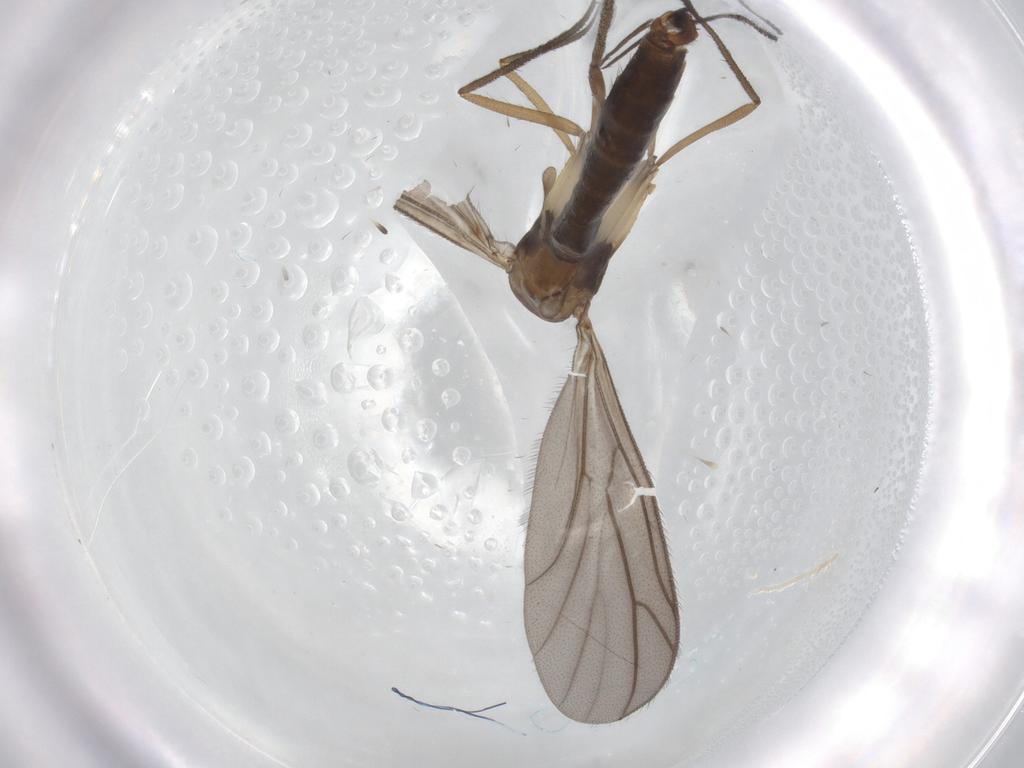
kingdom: Animalia
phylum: Arthropoda
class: Insecta
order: Diptera
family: Ditomyiidae
